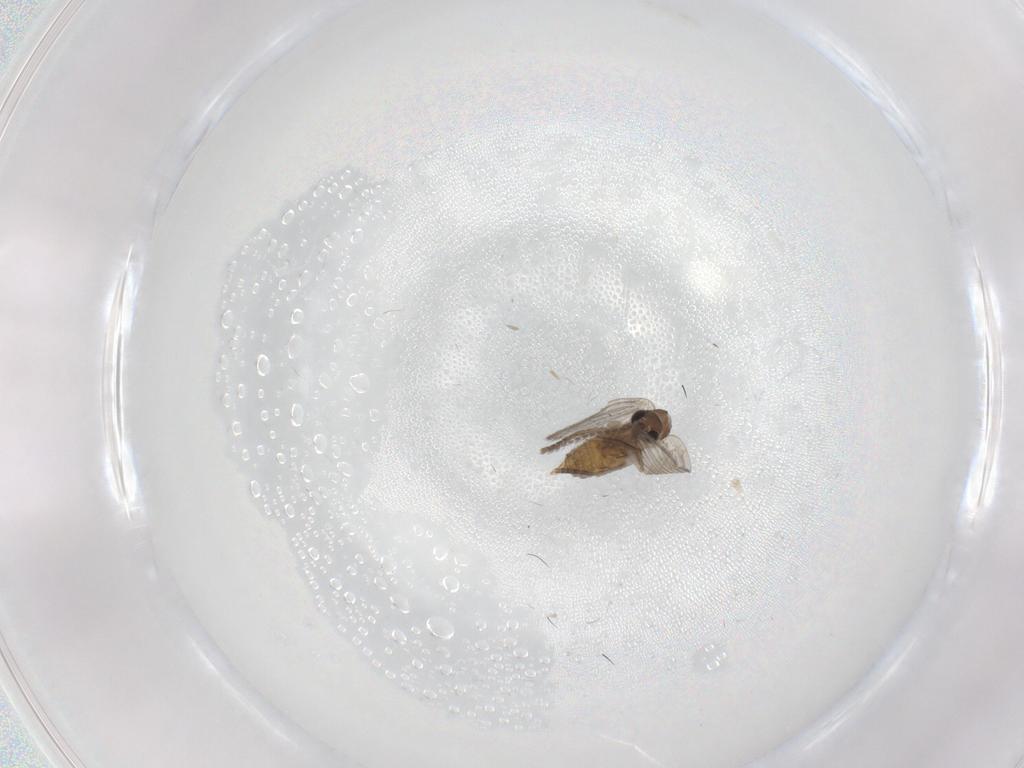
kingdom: Animalia
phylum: Arthropoda
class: Insecta
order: Diptera
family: Psychodidae
